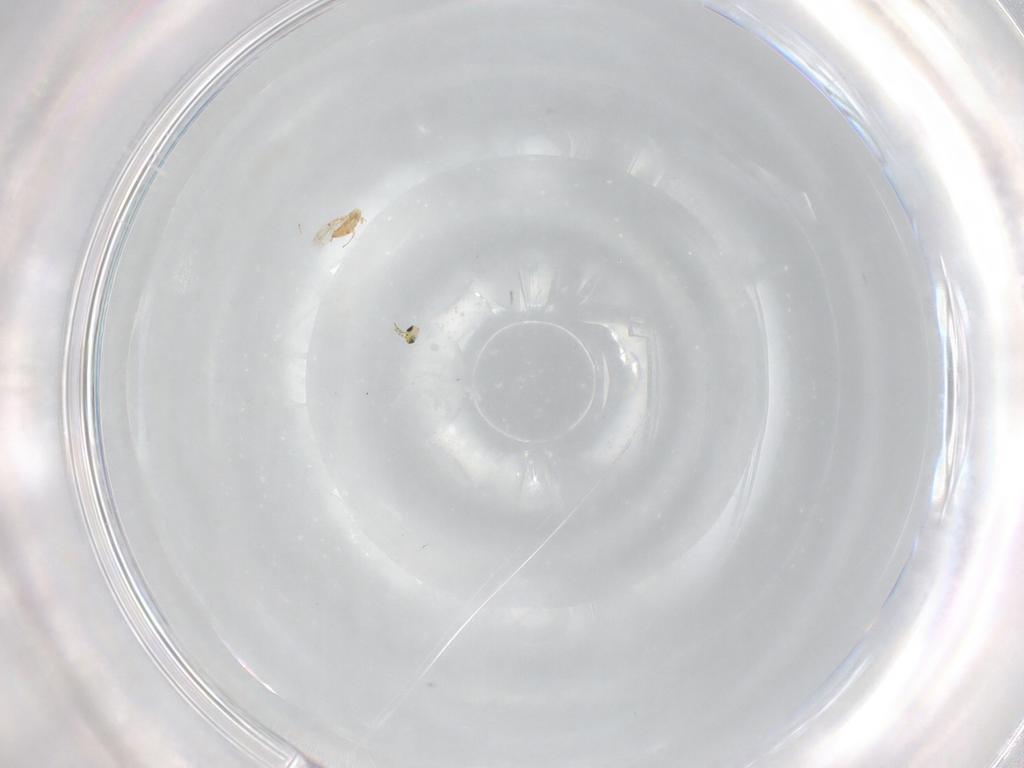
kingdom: Animalia
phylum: Arthropoda
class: Insecta
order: Hymenoptera
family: Trichogrammatidae
